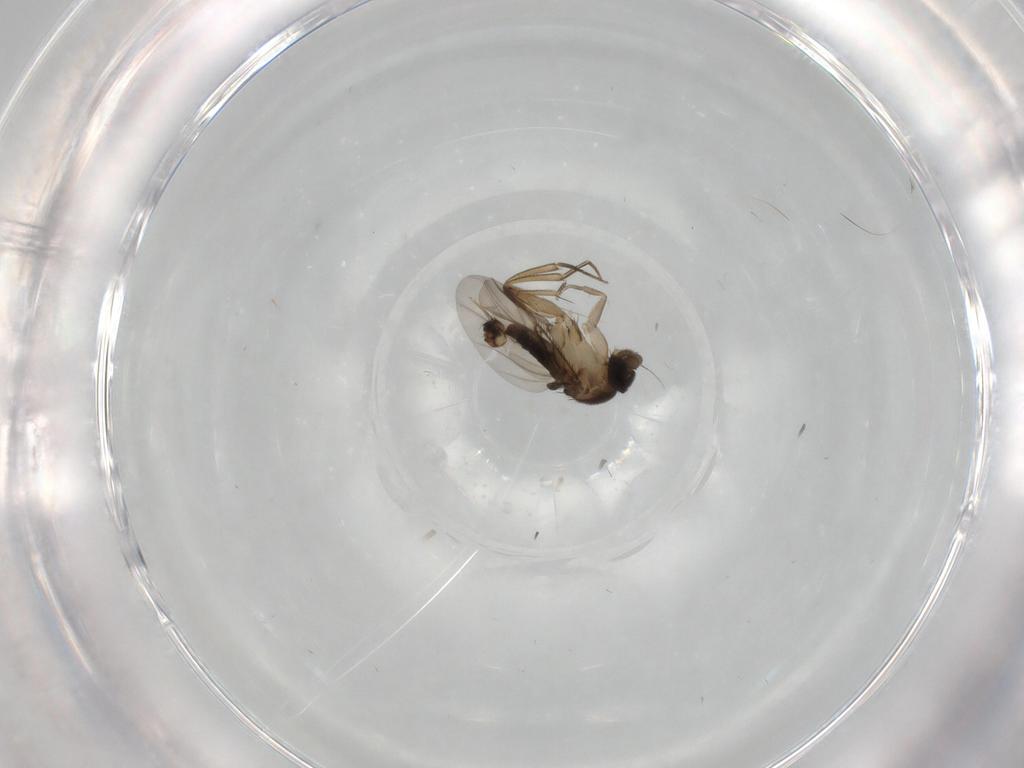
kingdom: Animalia
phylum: Arthropoda
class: Insecta
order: Diptera
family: Phoridae
